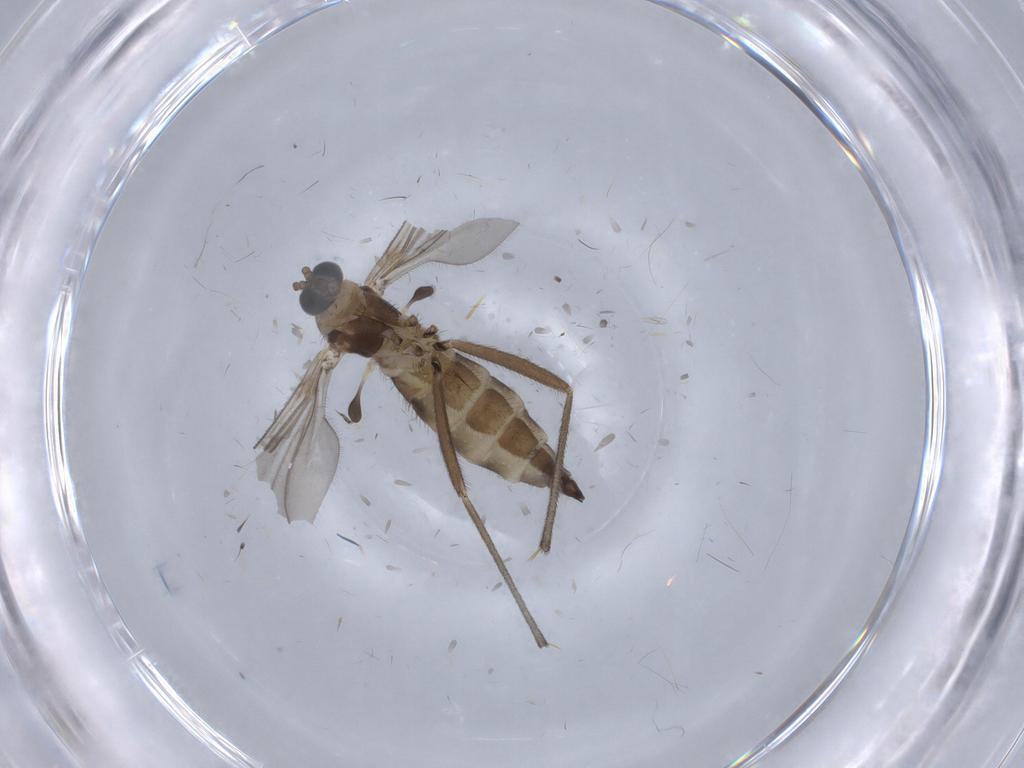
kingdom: Animalia
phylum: Arthropoda
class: Insecta
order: Diptera
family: Sciaridae
